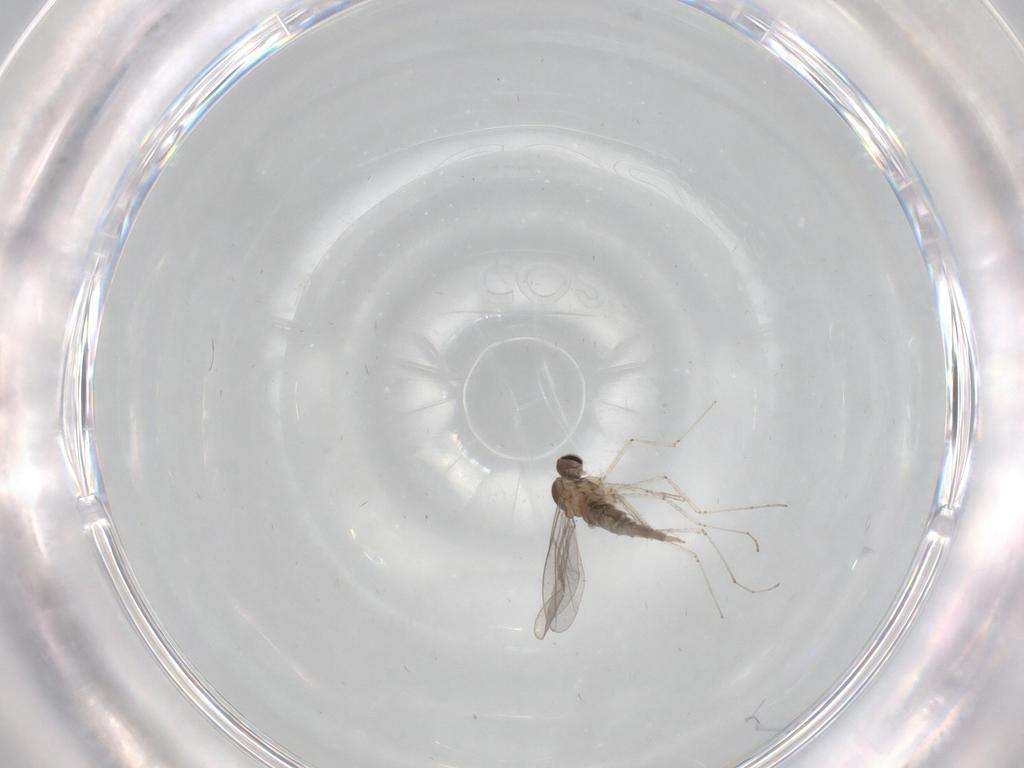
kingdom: Animalia
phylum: Arthropoda
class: Insecta
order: Diptera
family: Cecidomyiidae
